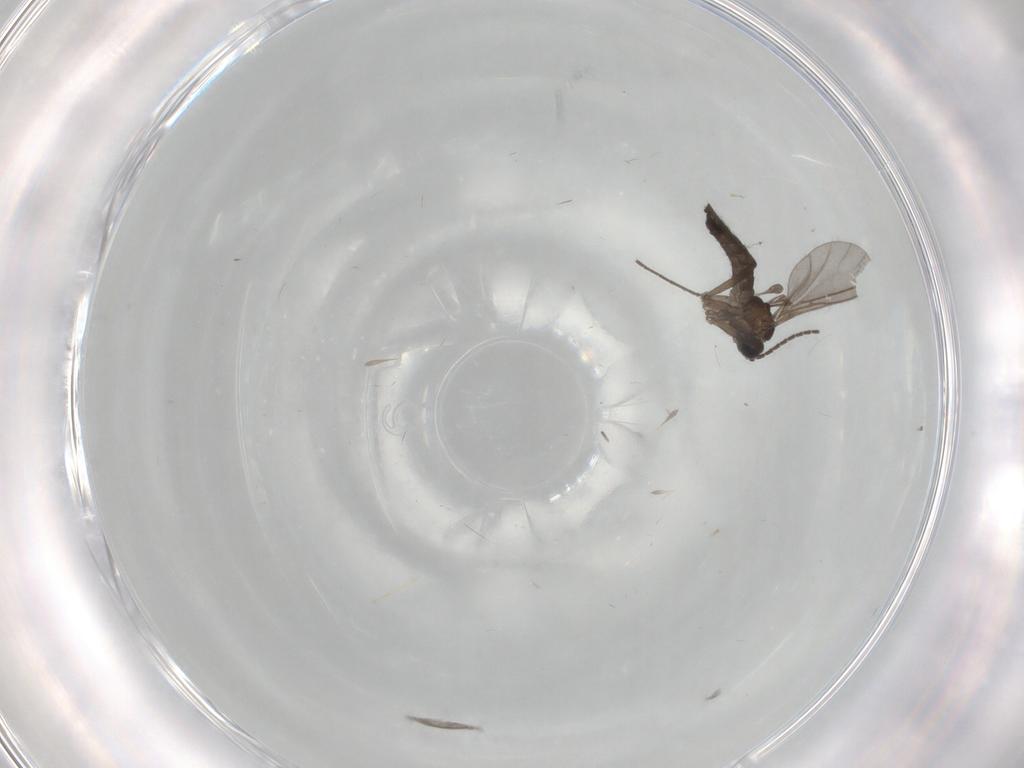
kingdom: Animalia
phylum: Arthropoda
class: Insecta
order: Diptera
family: Sciaridae
